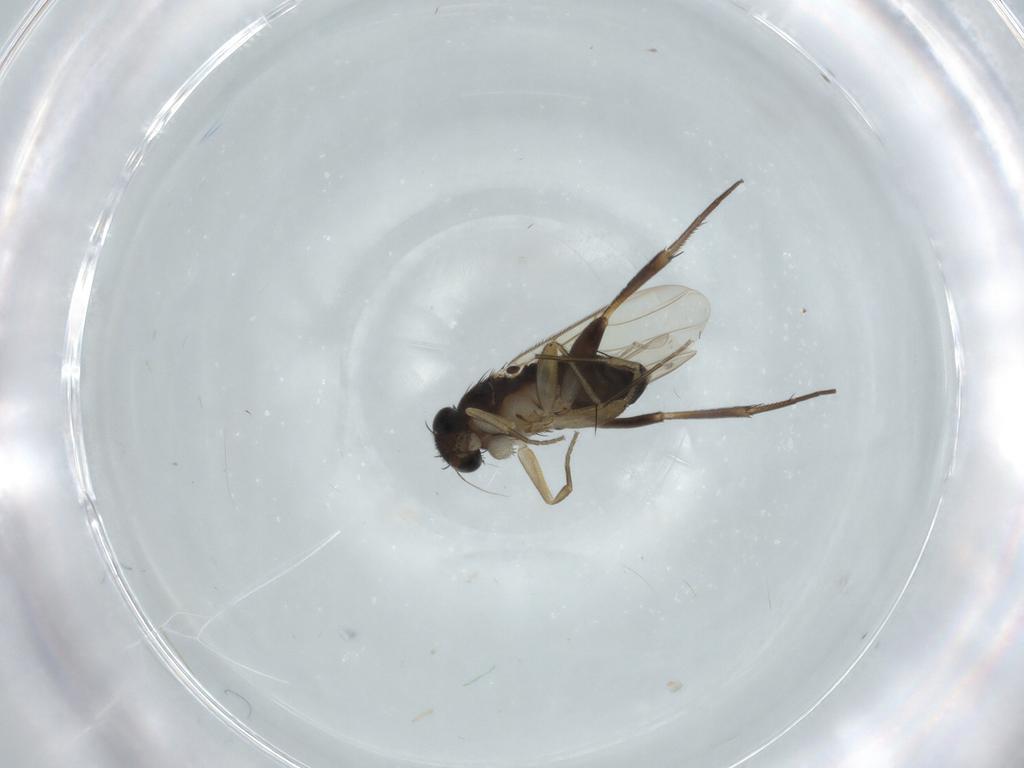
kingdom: Animalia
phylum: Arthropoda
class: Insecta
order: Diptera
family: Phoridae
